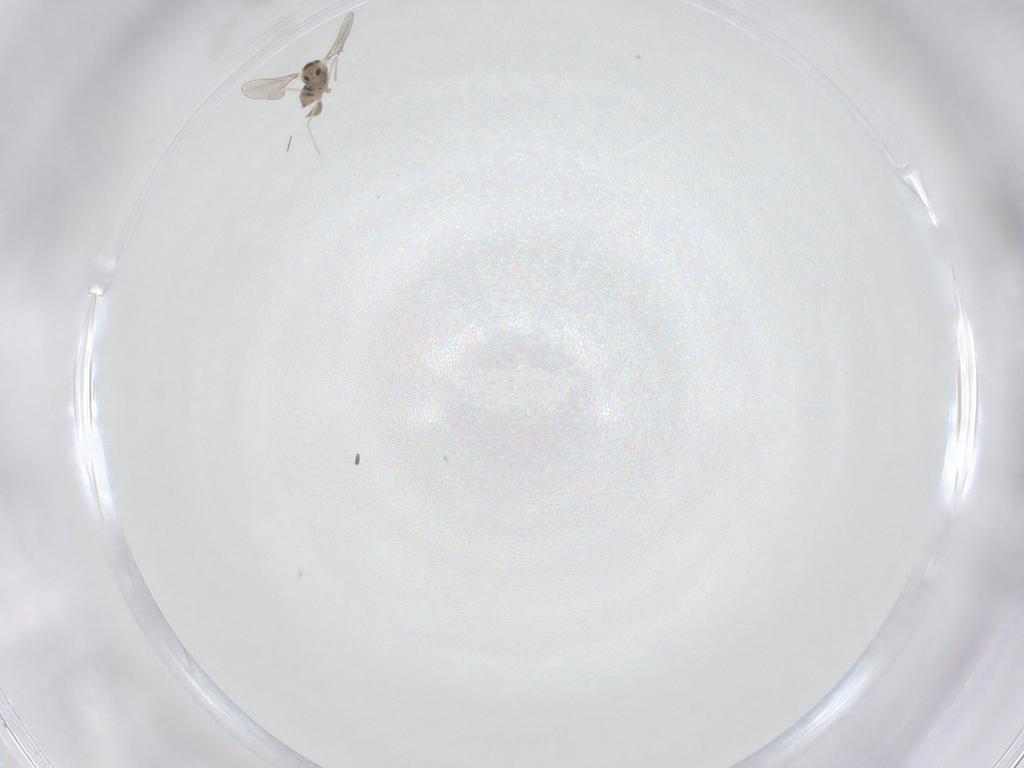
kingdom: Animalia
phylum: Arthropoda
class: Insecta
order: Diptera
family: Cecidomyiidae
